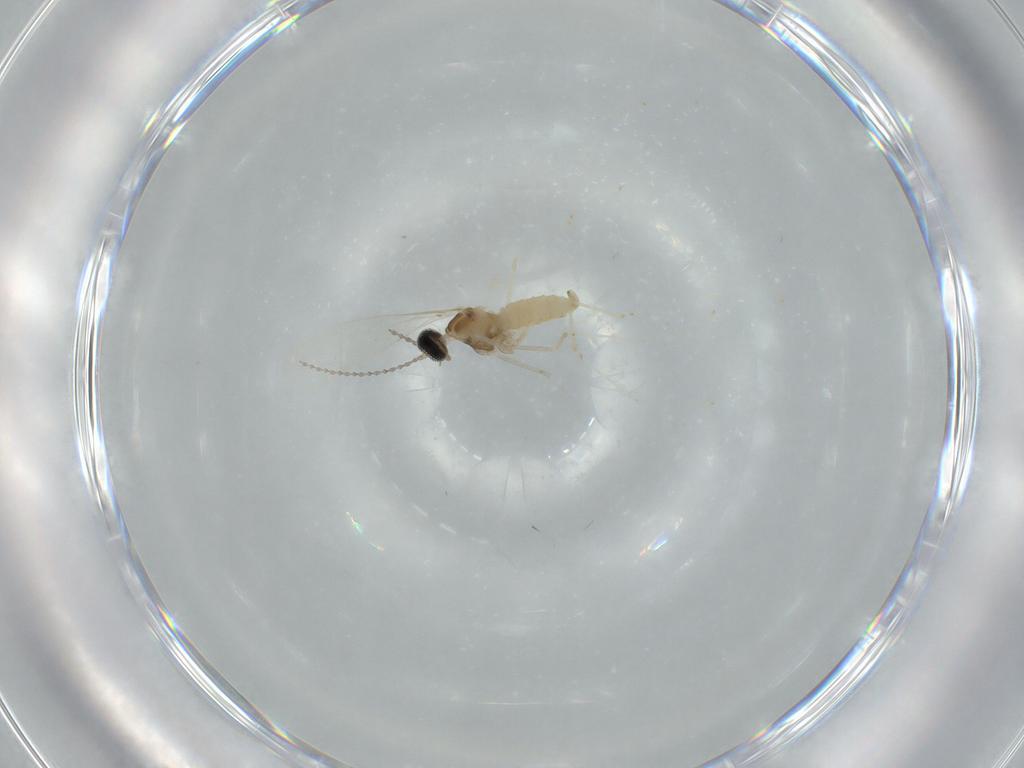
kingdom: Animalia
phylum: Arthropoda
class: Insecta
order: Diptera
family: Cecidomyiidae
